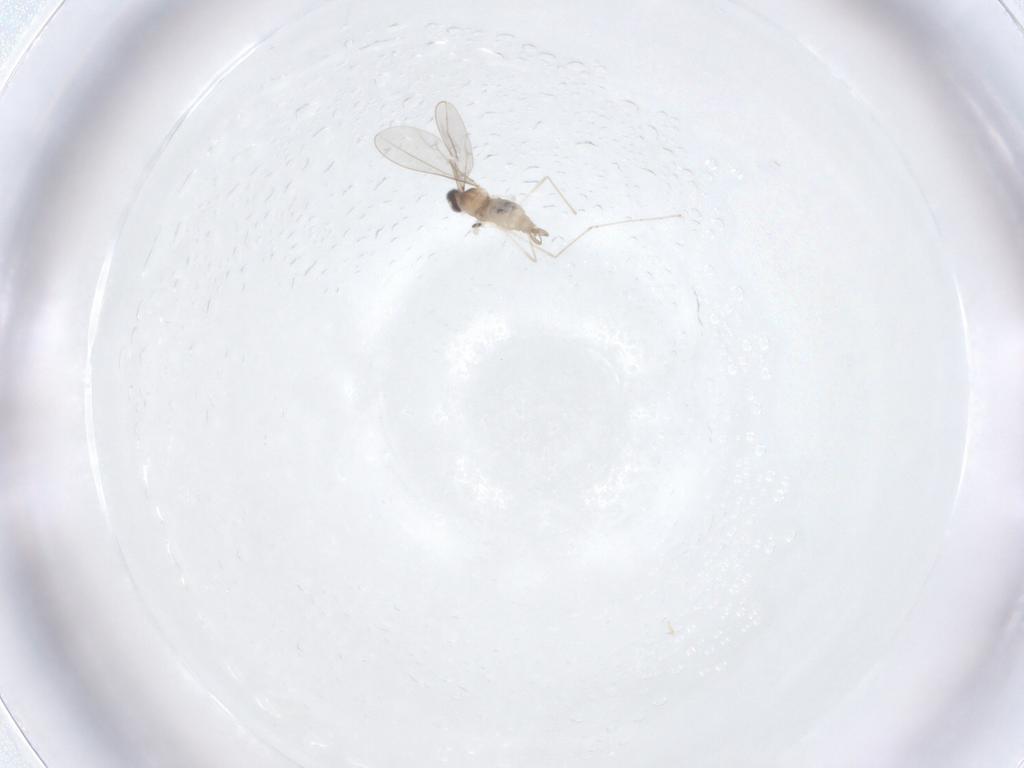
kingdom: Animalia
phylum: Arthropoda
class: Insecta
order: Diptera
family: Cecidomyiidae
